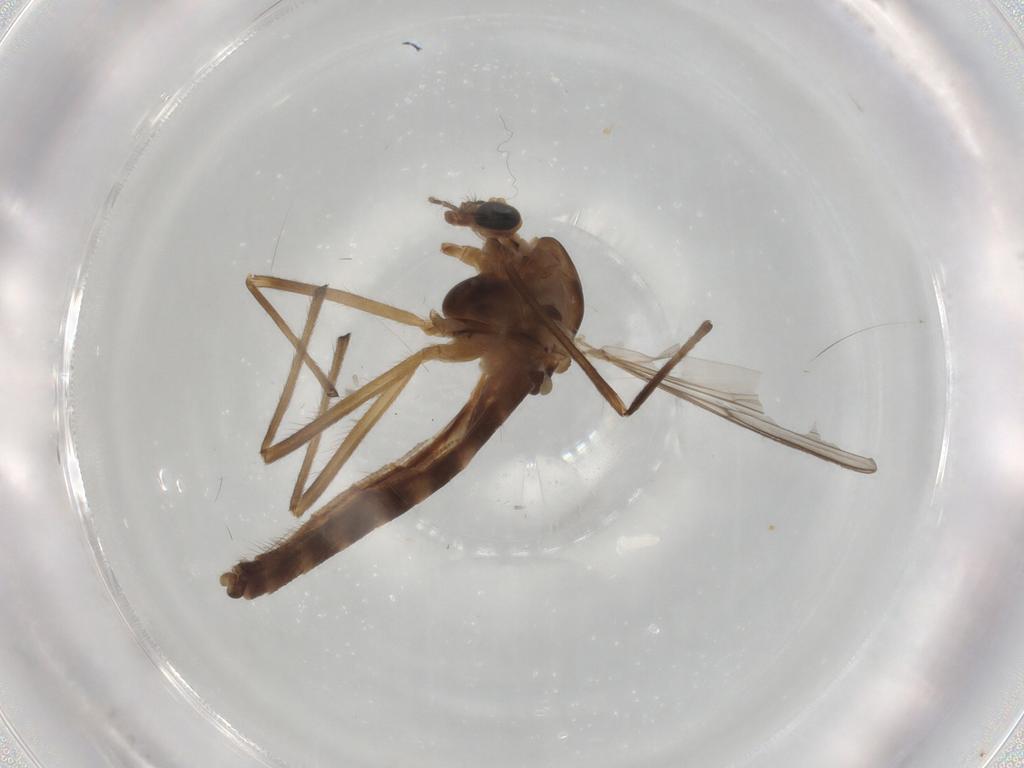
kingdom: Animalia
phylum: Arthropoda
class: Insecta
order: Diptera
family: Chironomidae
